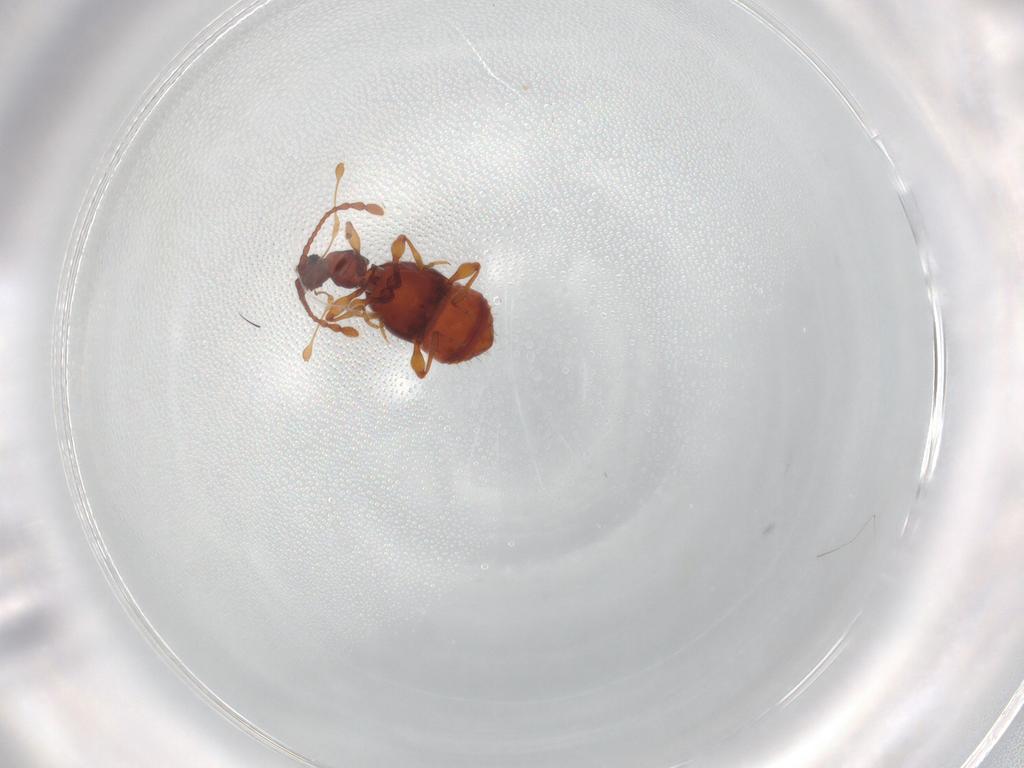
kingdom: Animalia
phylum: Arthropoda
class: Insecta
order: Coleoptera
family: Staphylinidae
